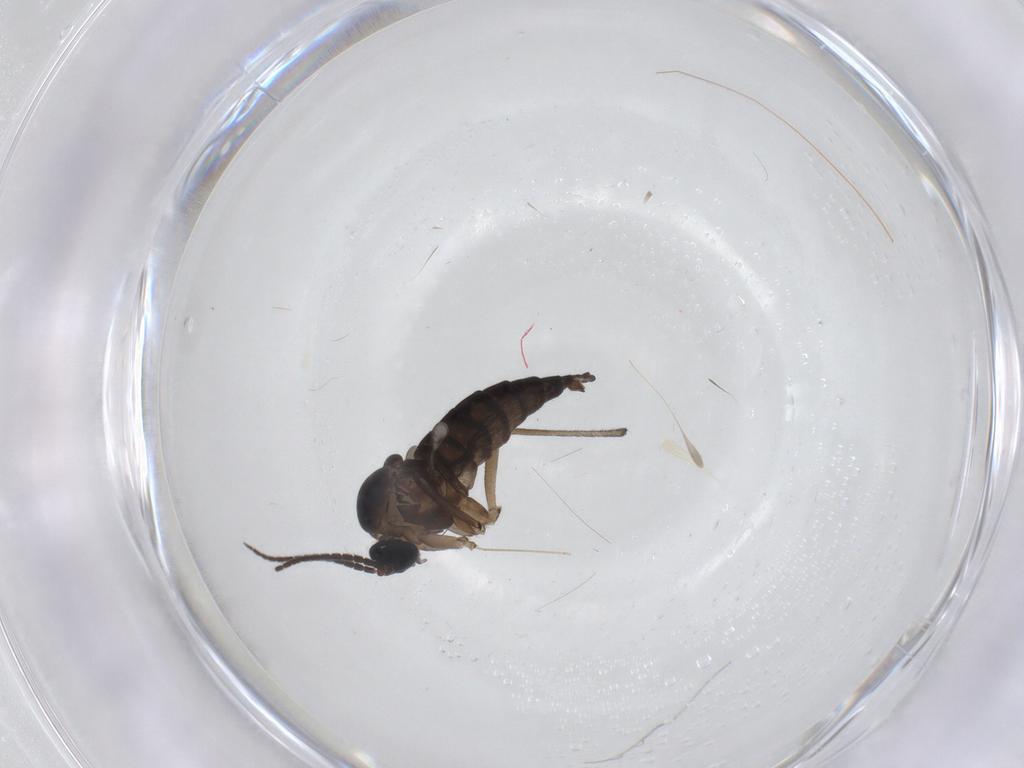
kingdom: Animalia
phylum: Arthropoda
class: Insecta
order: Diptera
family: Sciaridae
